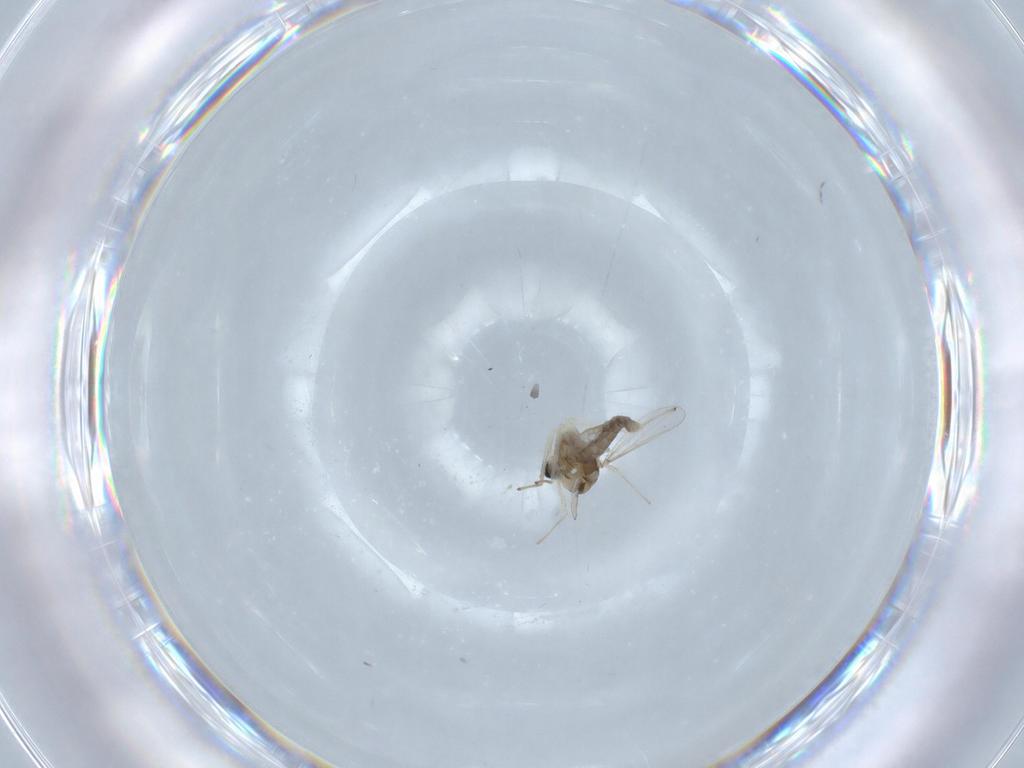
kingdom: Animalia
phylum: Arthropoda
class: Insecta
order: Diptera
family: Chironomidae
